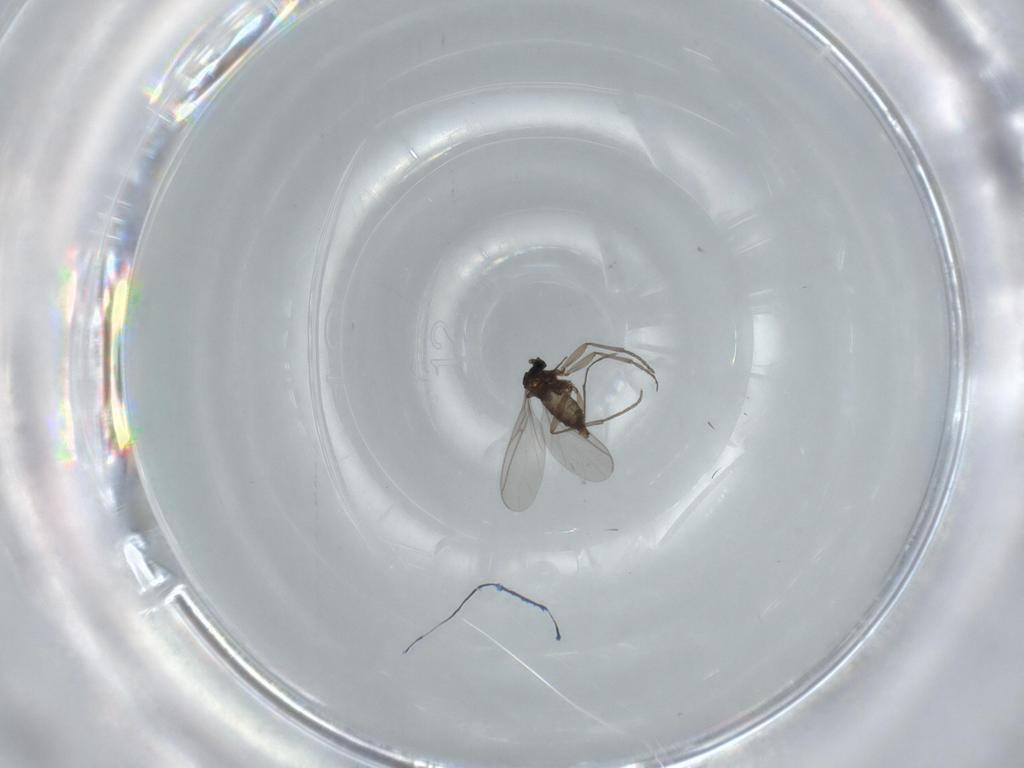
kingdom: Animalia
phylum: Arthropoda
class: Insecta
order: Diptera
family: Sciaridae
